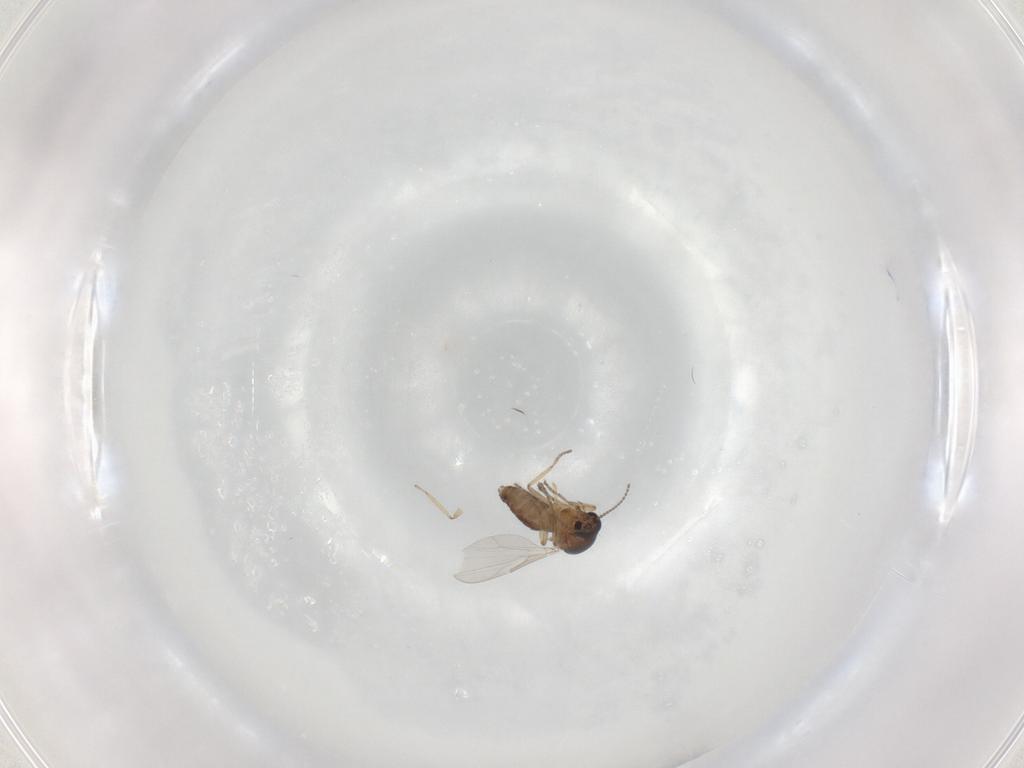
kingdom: Animalia
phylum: Arthropoda
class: Insecta
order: Diptera
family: Ceratopogonidae
